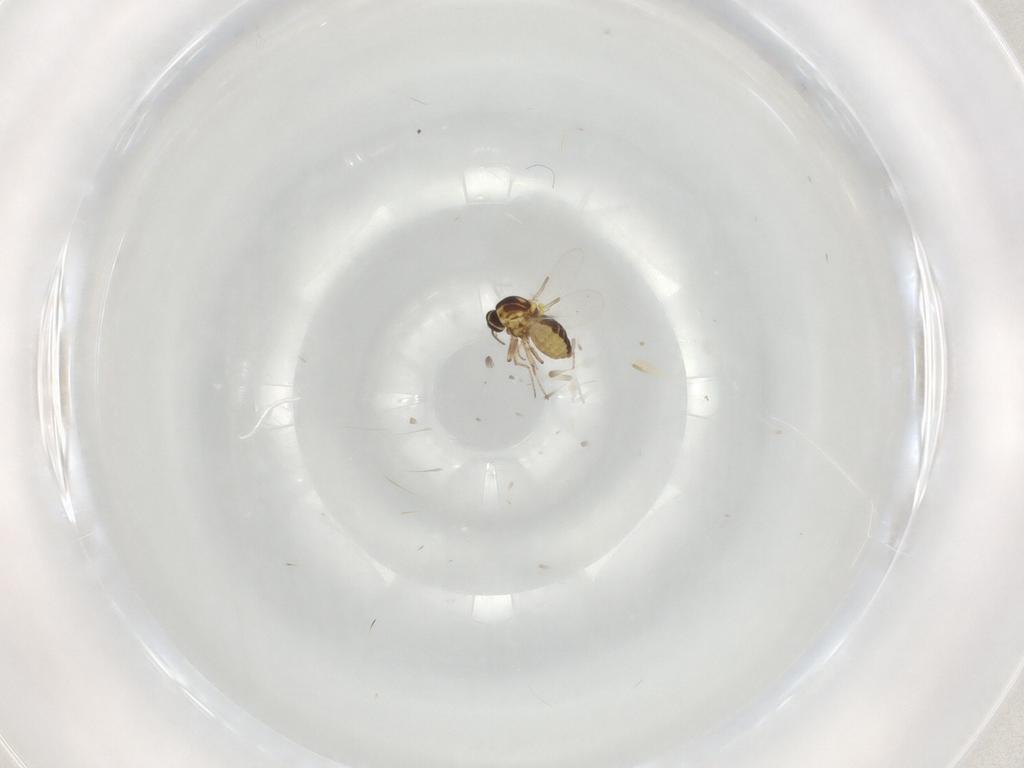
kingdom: Animalia
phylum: Arthropoda
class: Insecta
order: Diptera
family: Ceratopogonidae
